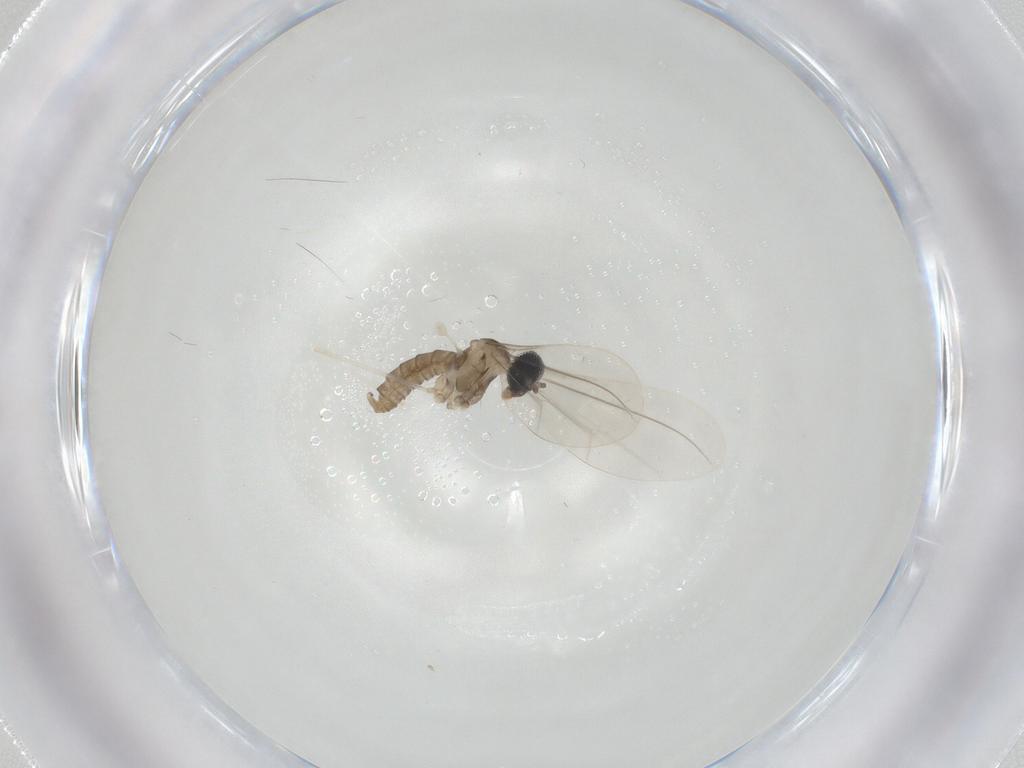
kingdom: Animalia
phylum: Arthropoda
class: Insecta
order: Diptera
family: Cecidomyiidae
